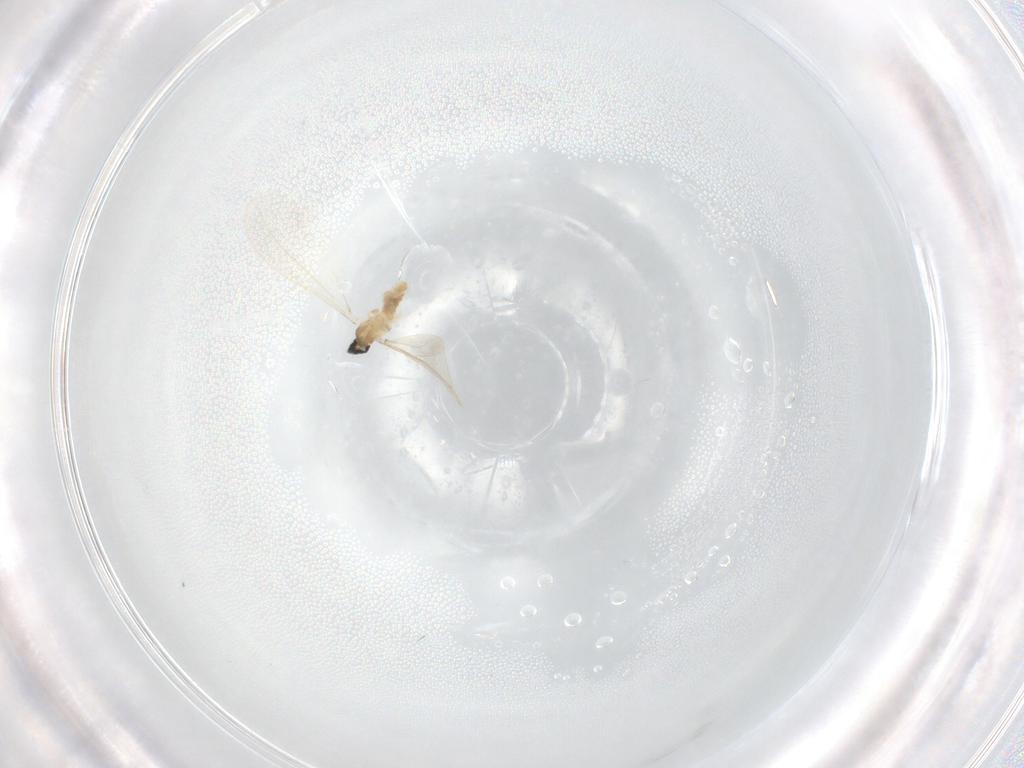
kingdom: Animalia
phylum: Arthropoda
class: Insecta
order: Diptera
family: Cecidomyiidae
